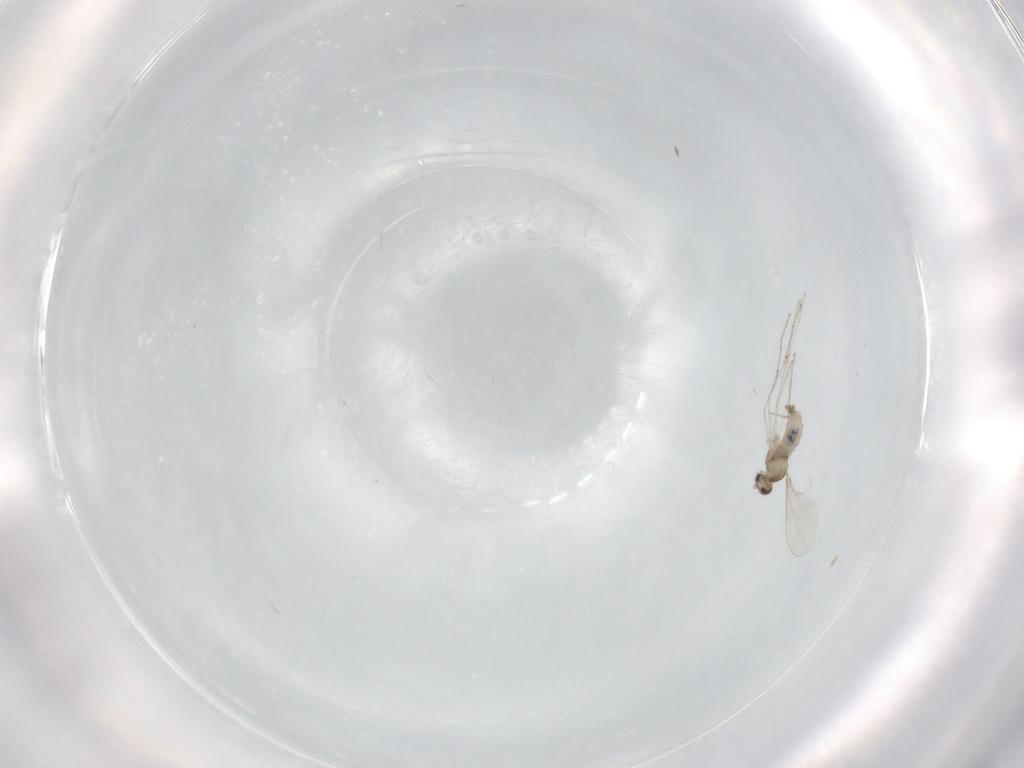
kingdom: Animalia
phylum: Arthropoda
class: Insecta
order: Diptera
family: Cecidomyiidae
